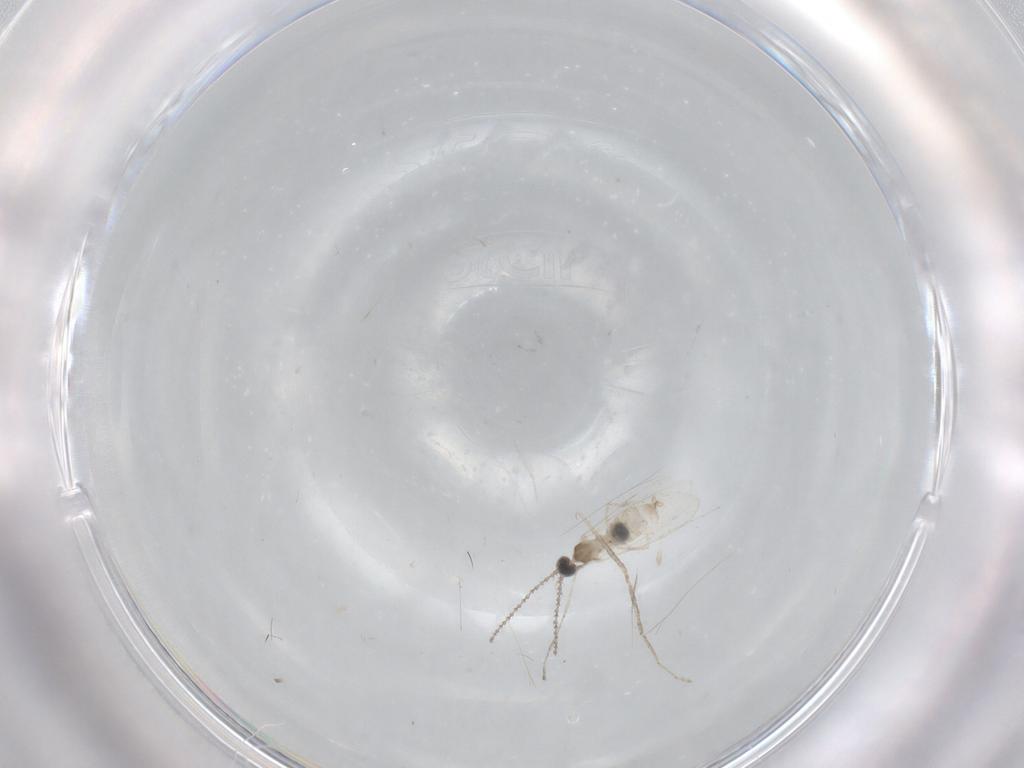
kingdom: Animalia
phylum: Arthropoda
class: Insecta
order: Diptera
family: Cecidomyiidae
